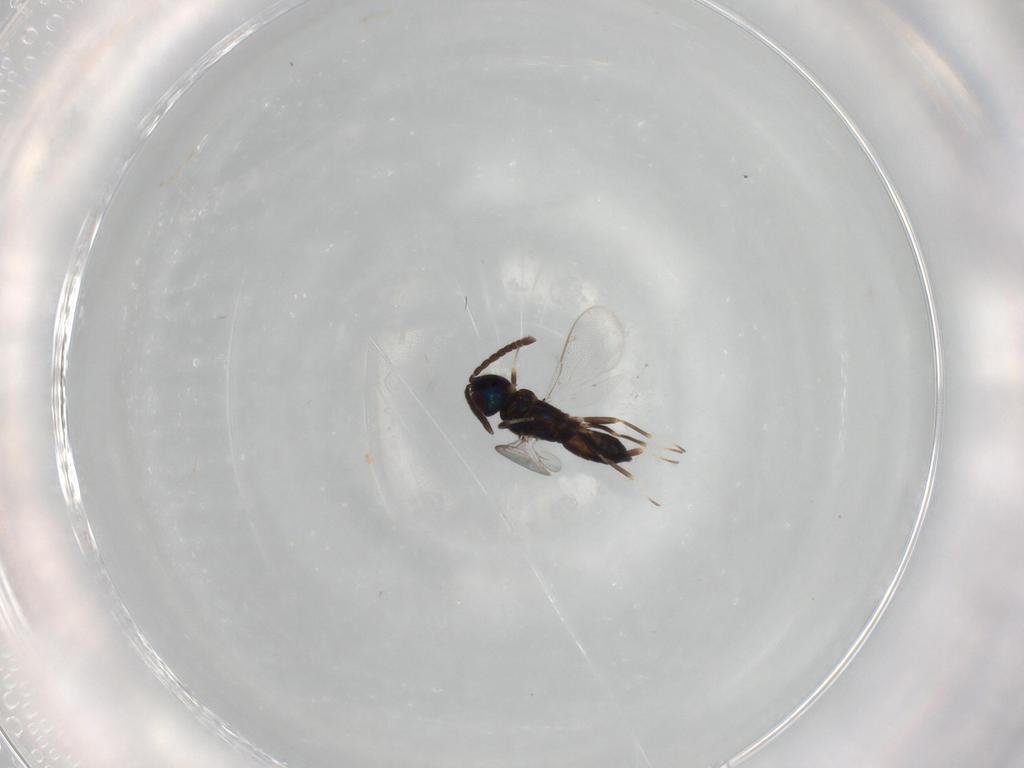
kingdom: Animalia
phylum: Arthropoda
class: Insecta
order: Hymenoptera
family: Eupelmidae
